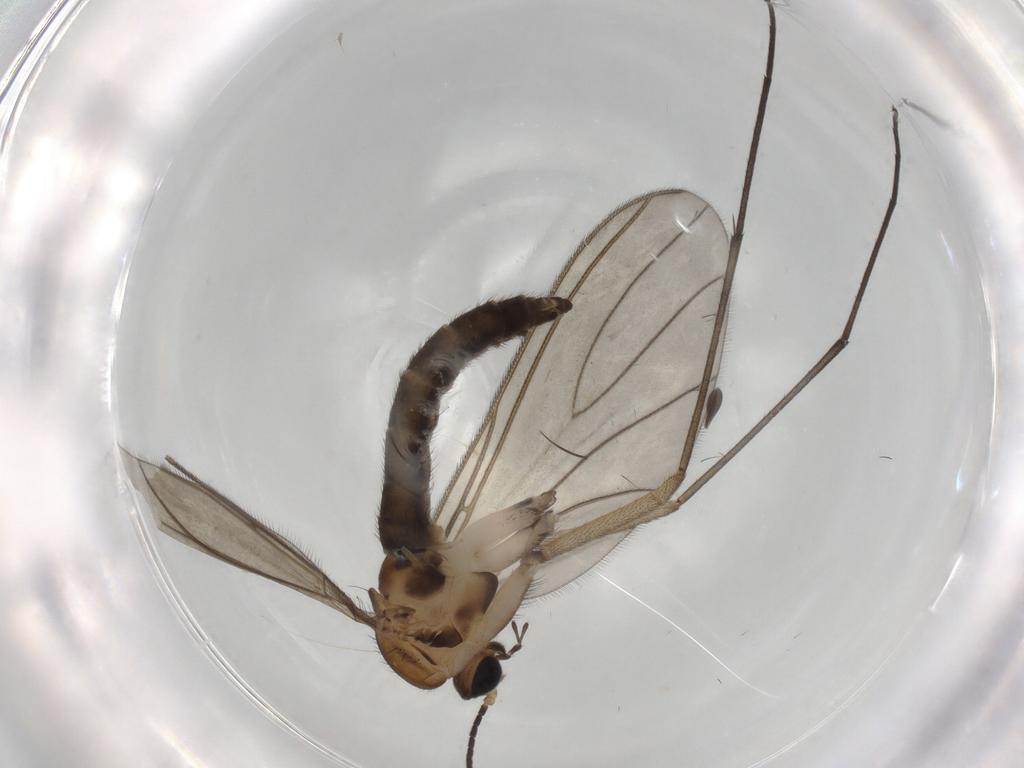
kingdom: Animalia
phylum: Arthropoda
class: Insecta
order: Diptera
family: Sciaridae
